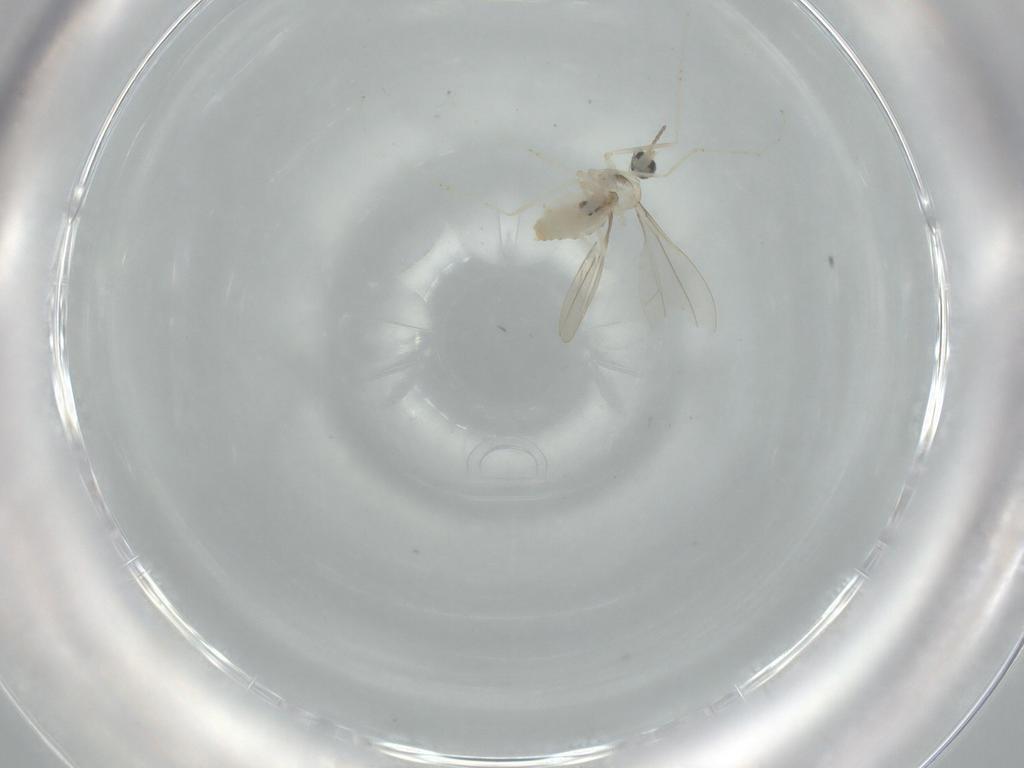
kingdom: Animalia
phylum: Arthropoda
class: Insecta
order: Diptera
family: Cecidomyiidae
